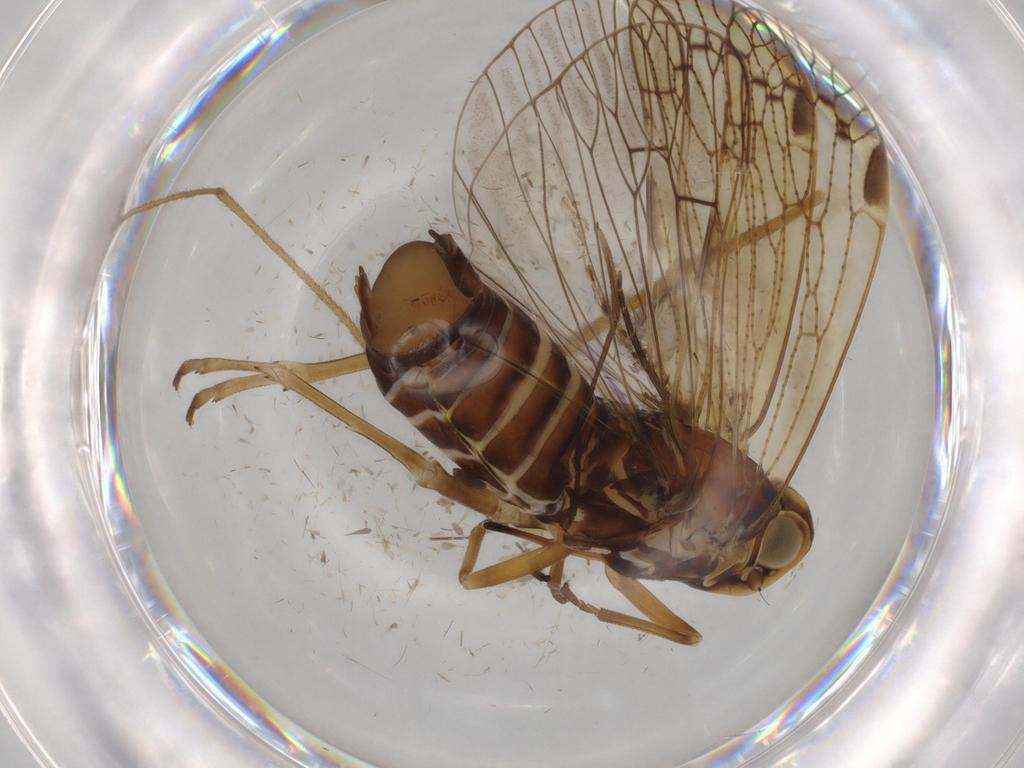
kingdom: Animalia
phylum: Arthropoda
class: Insecta
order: Hemiptera
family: Cixiidae
